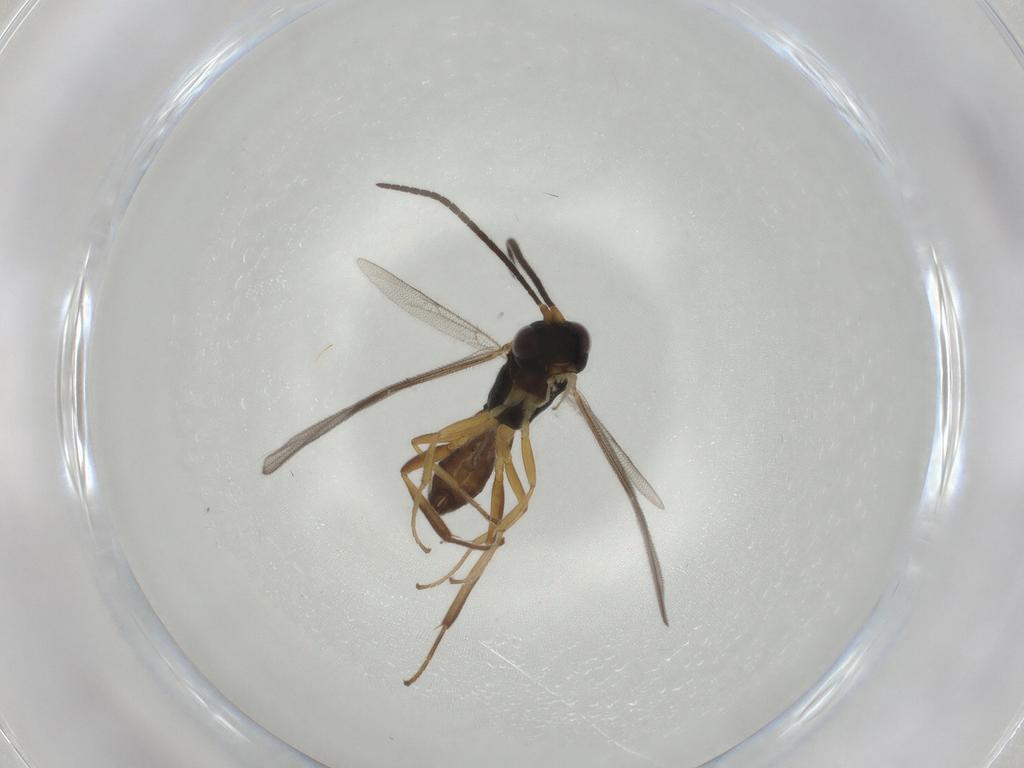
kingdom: Animalia
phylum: Arthropoda
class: Insecta
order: Hymenoptera
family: Ichneumonidae
